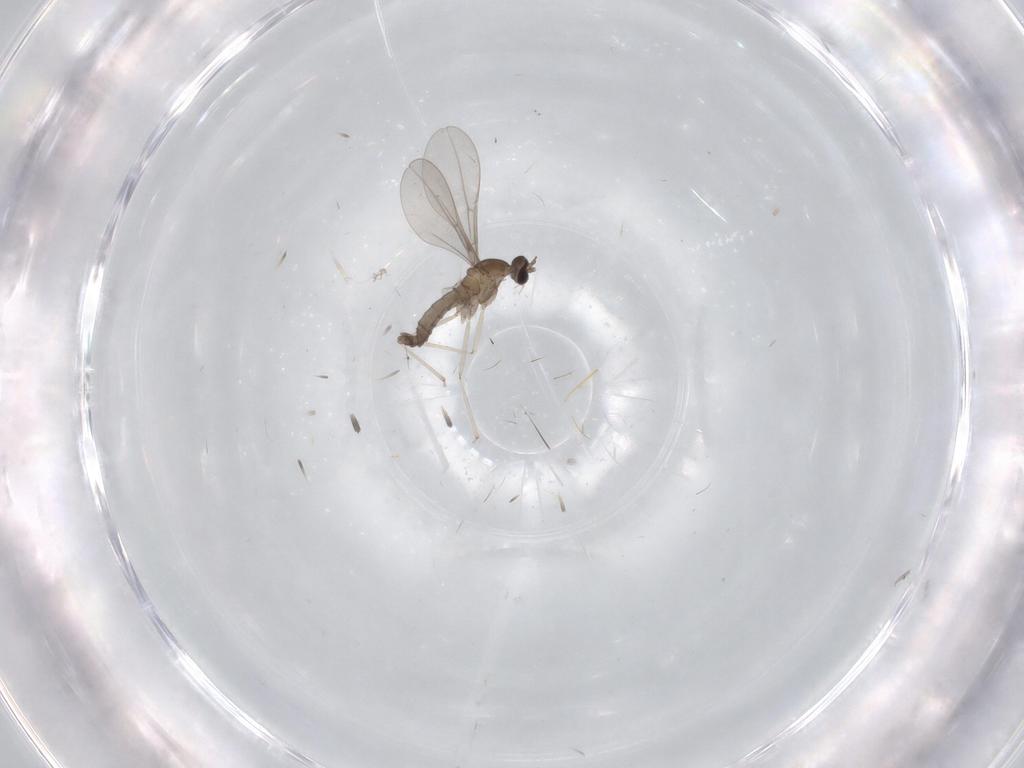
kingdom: Animalia
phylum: Arthropoda
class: Insecta
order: Diptera
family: Cecidomyiidae
